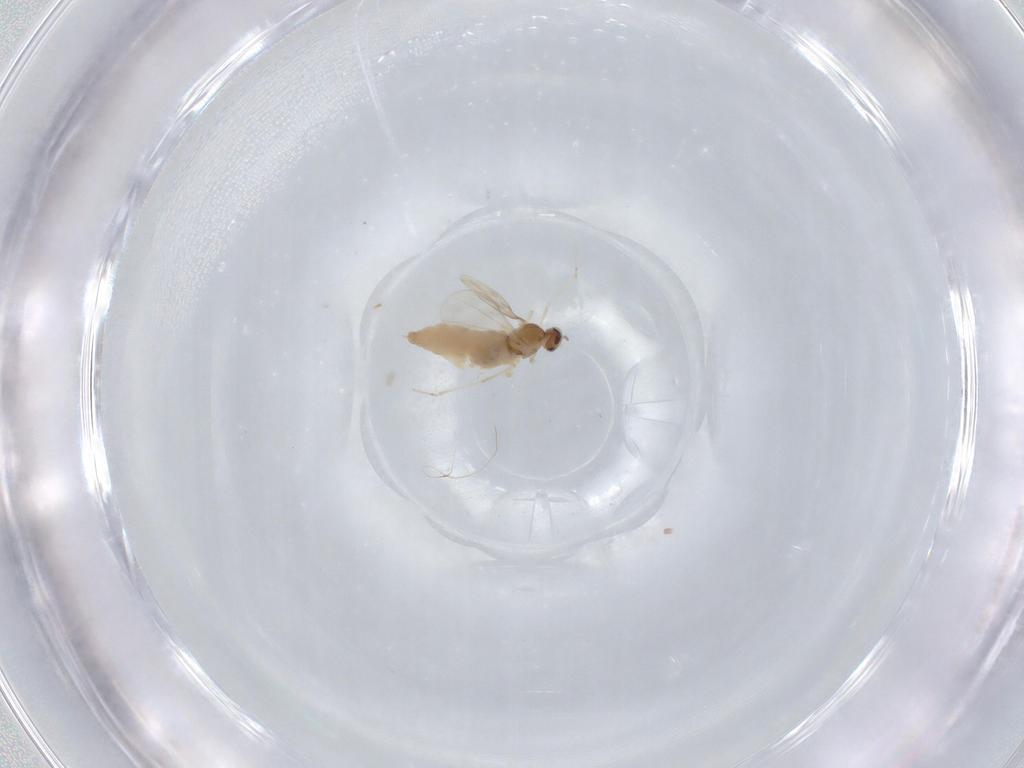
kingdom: Animalia
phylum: Arthropoda
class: Insecta
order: Diptera
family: Cecidomyiidae
